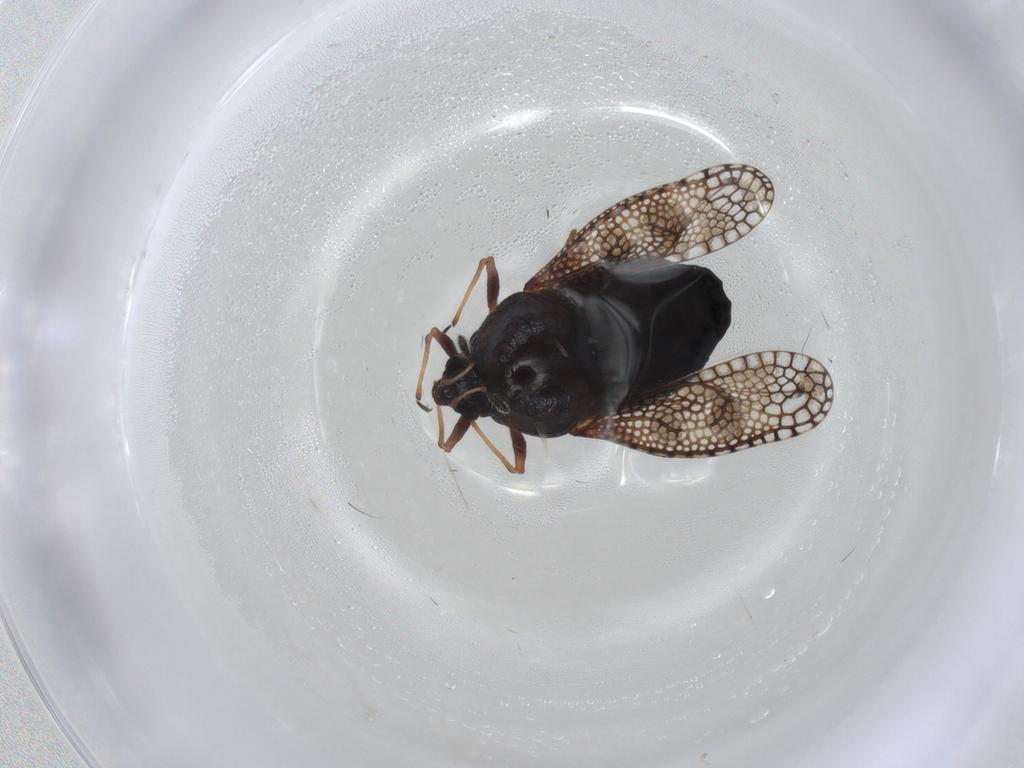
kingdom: Animalia
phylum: Arthropoda
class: Insecta
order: Hemiptera
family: Tingidae
